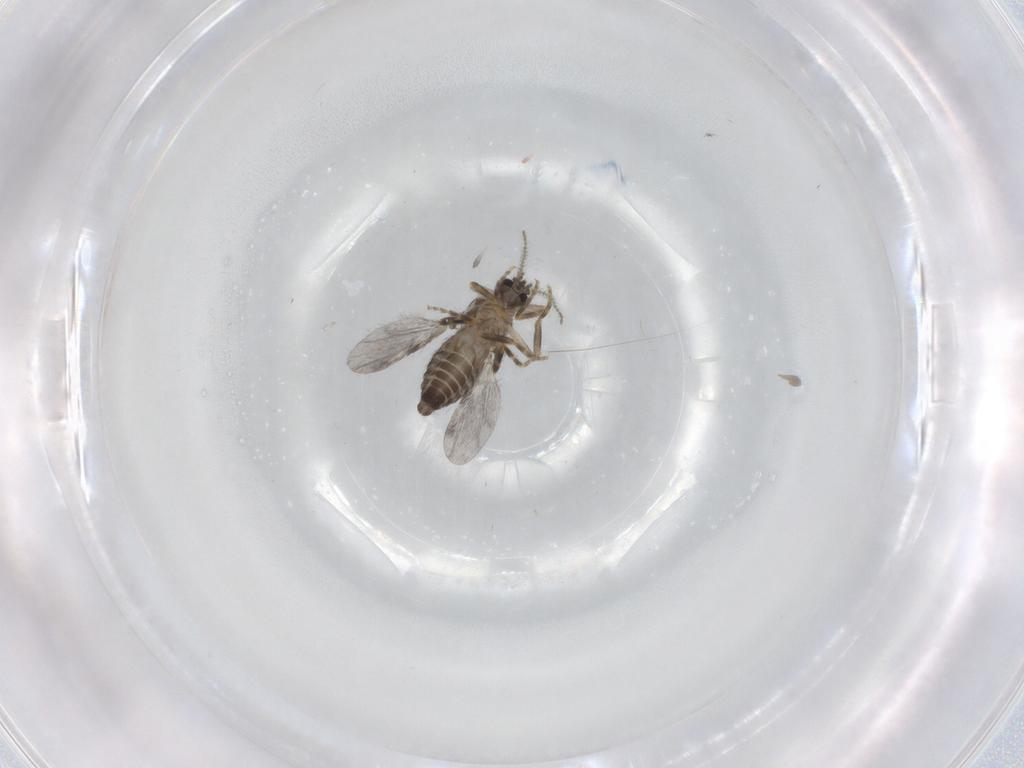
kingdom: Animalia
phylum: Arthropoda
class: Insecta
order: Diptera
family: Ceratopogonidae
